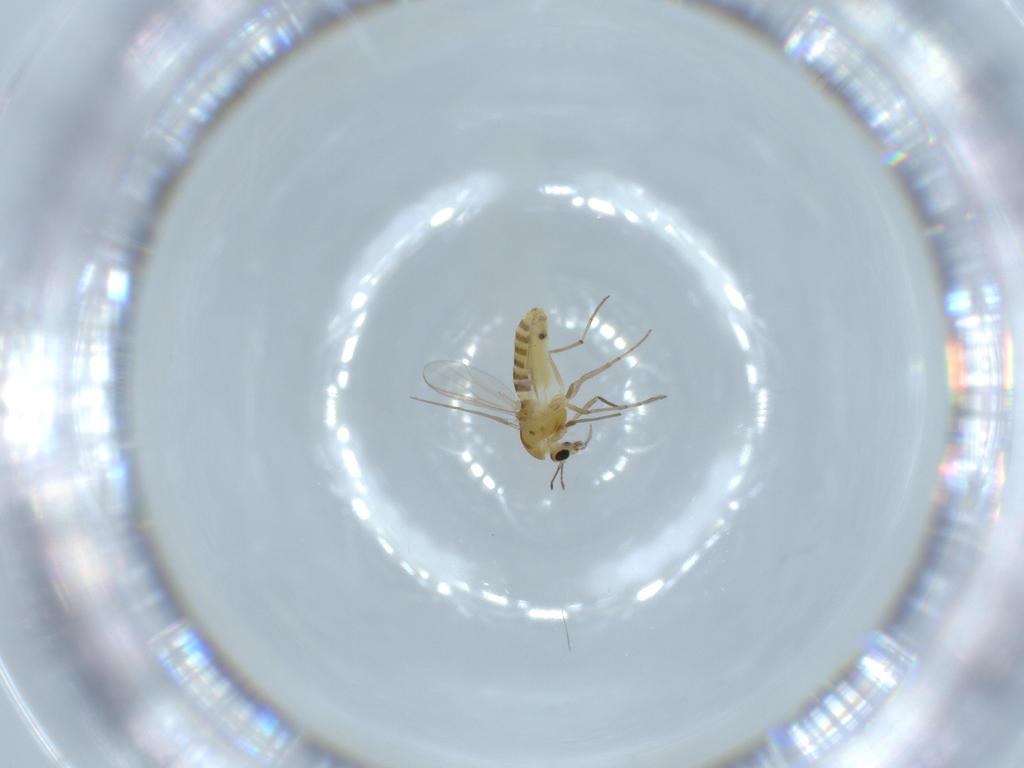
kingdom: Animalia
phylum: Arthropoda
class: Insecta
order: Diptera
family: Chironomidae
